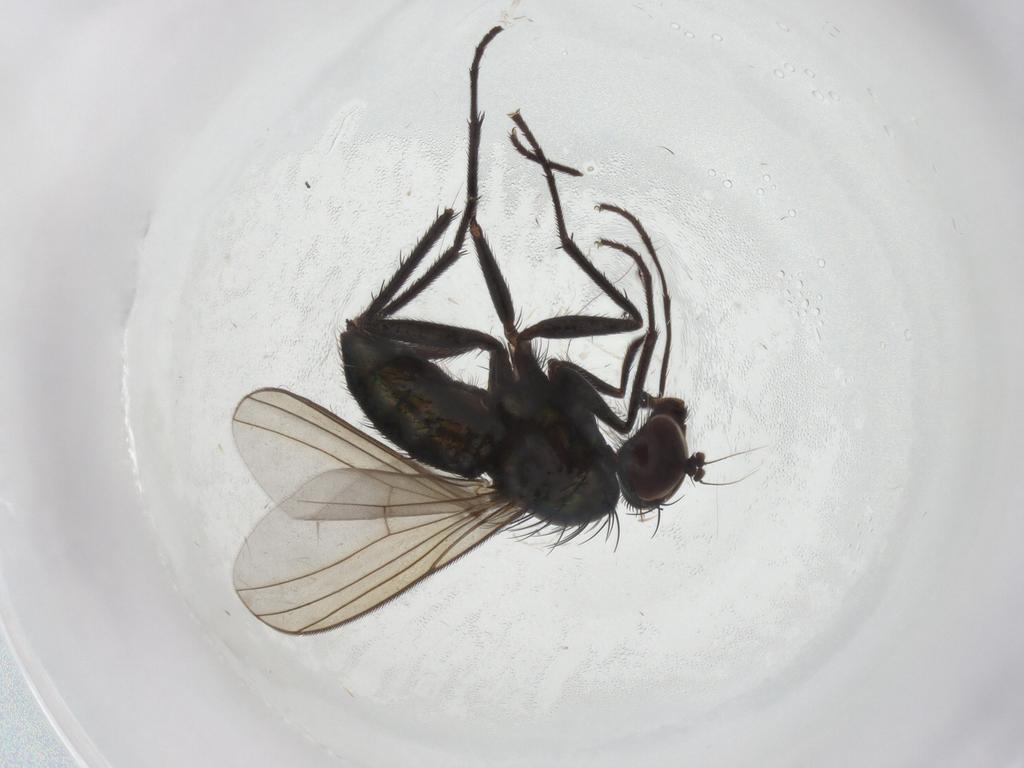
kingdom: Animalia
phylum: Arthropoda
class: Insecta
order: Diptera
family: Sciaridae
